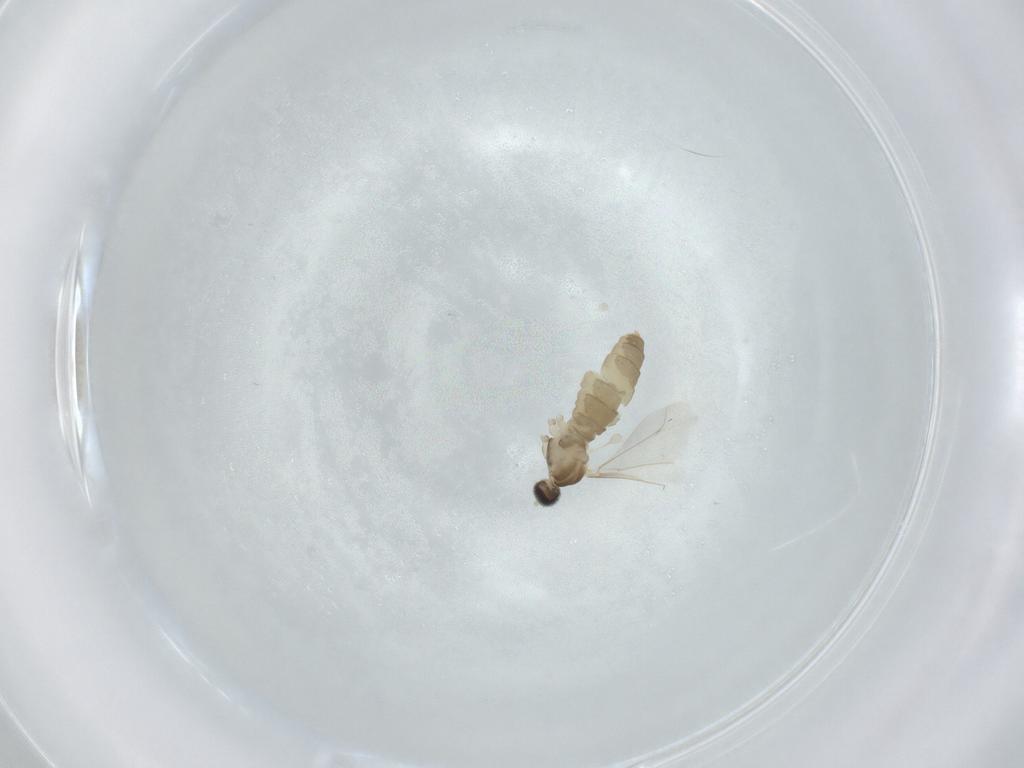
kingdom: Animalia
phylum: Arthropoda
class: Insecta
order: Diptera
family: Cecidomyiidae
